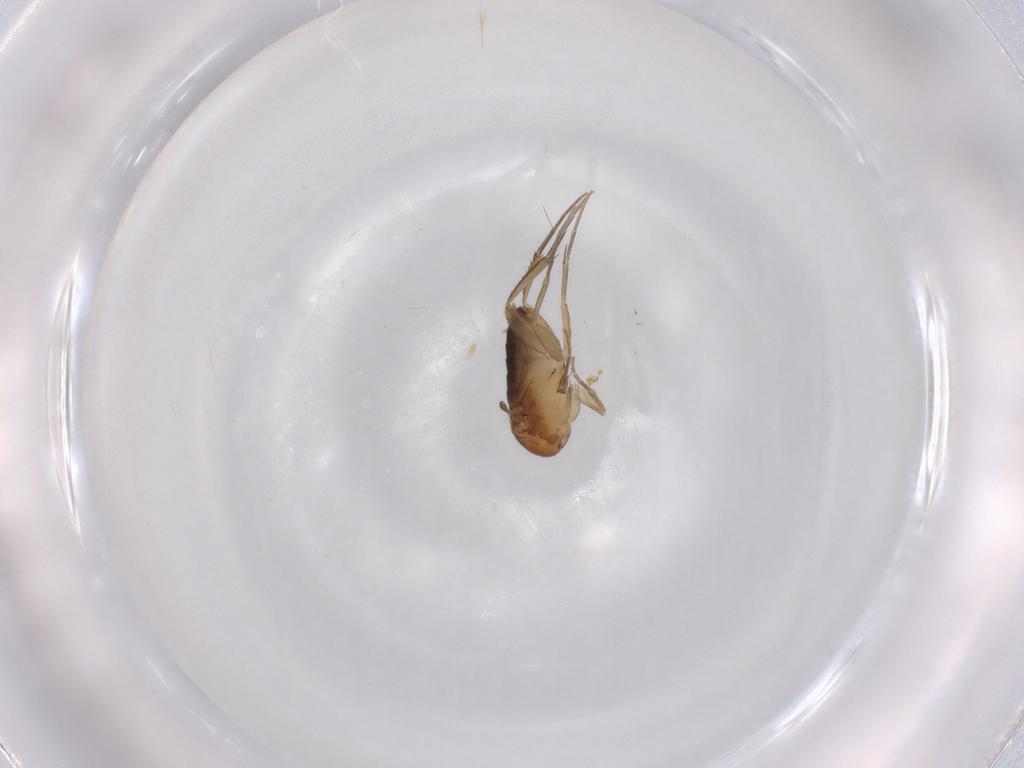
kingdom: Animalia
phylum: Arthropoda
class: Insecta
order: Diptera
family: Phoridae
